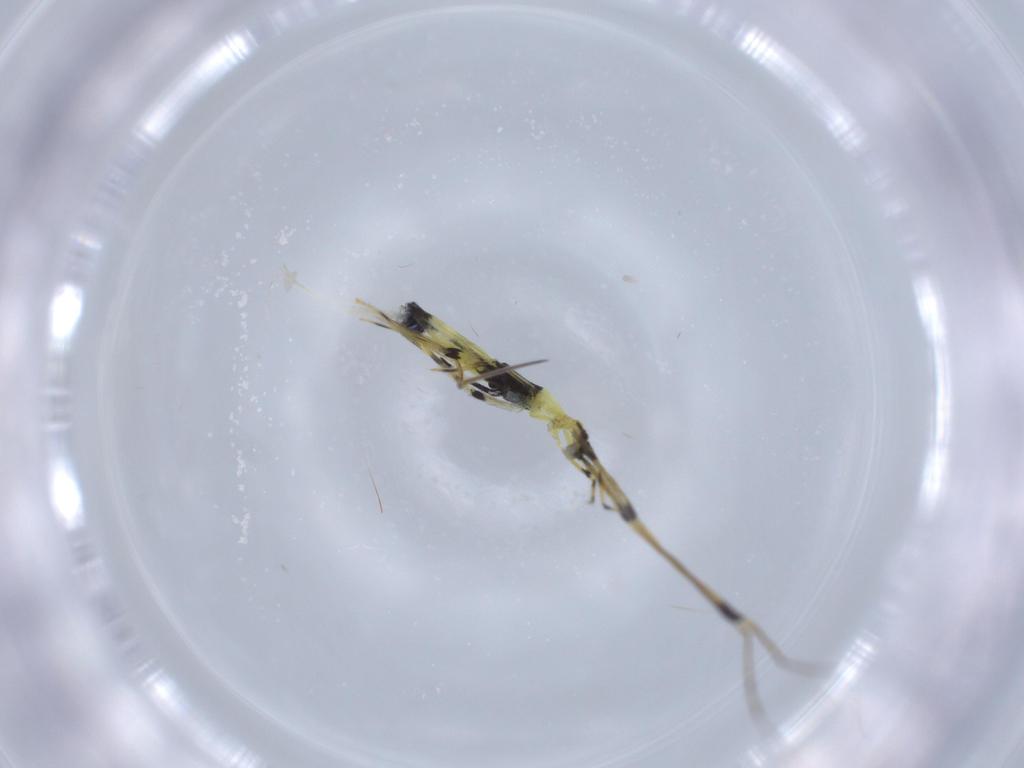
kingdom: Animalia
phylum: Arthropoda
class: Collembola
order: Entomobryomorpha
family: Paronellidae
